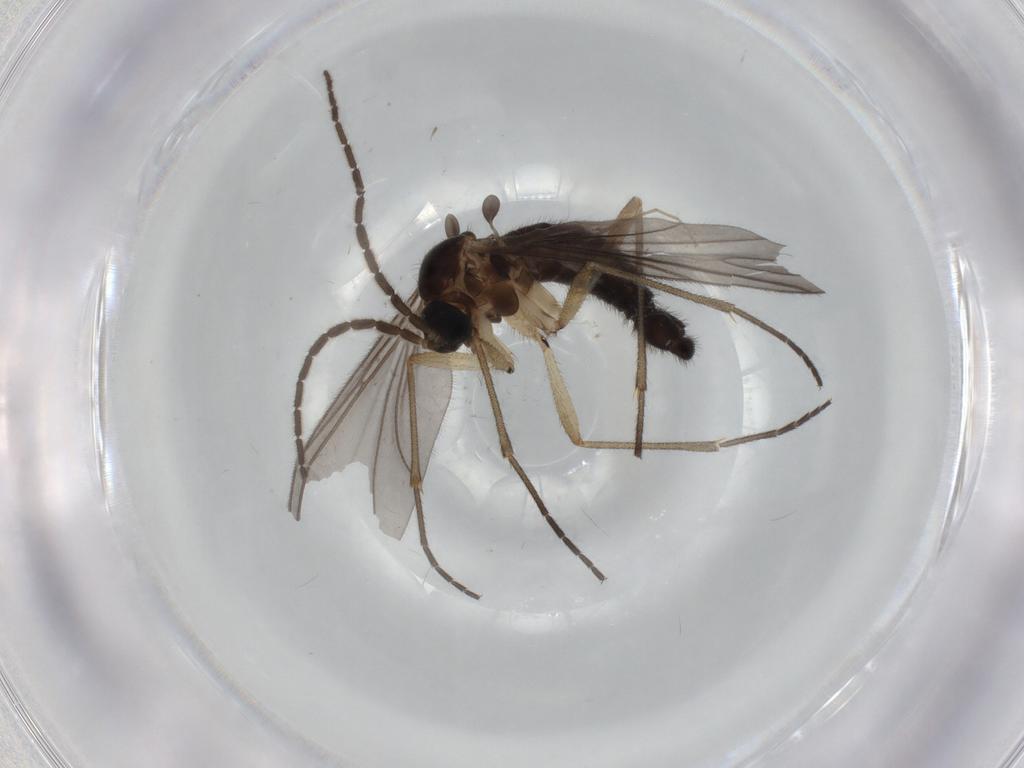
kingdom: Animalia
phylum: Arthropoda
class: Insecta
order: Diptera
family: Sciaridae
